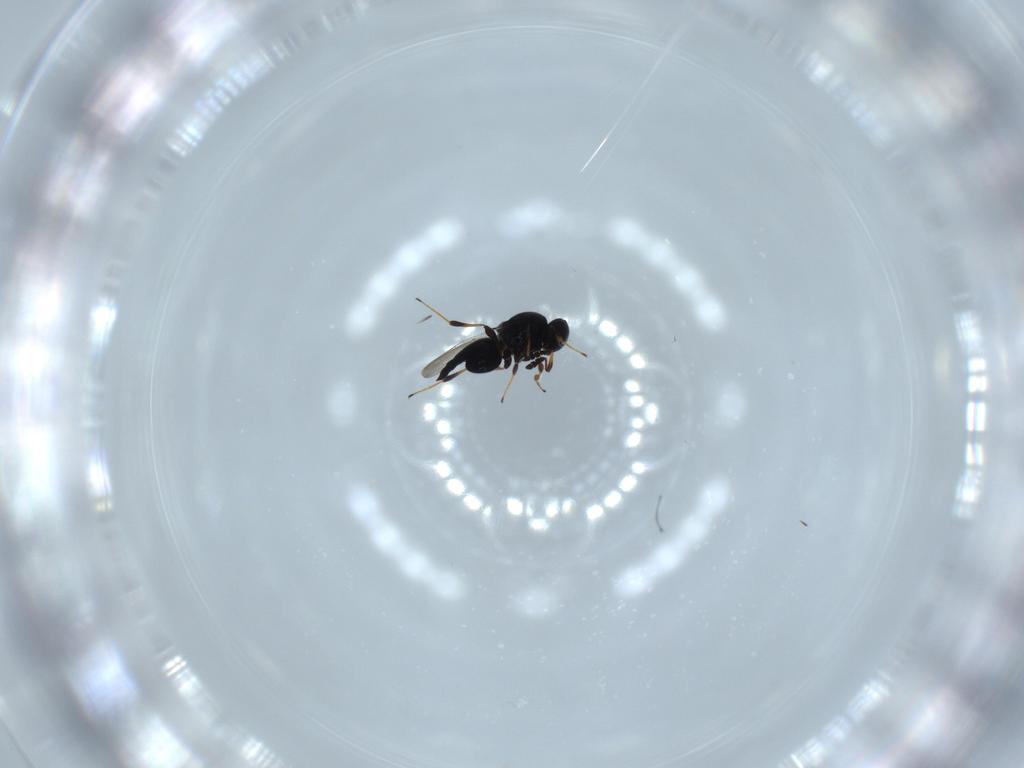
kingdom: Animalia
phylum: Arthropoda
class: Insecta
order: Hymenoptera
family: Platygastridae
